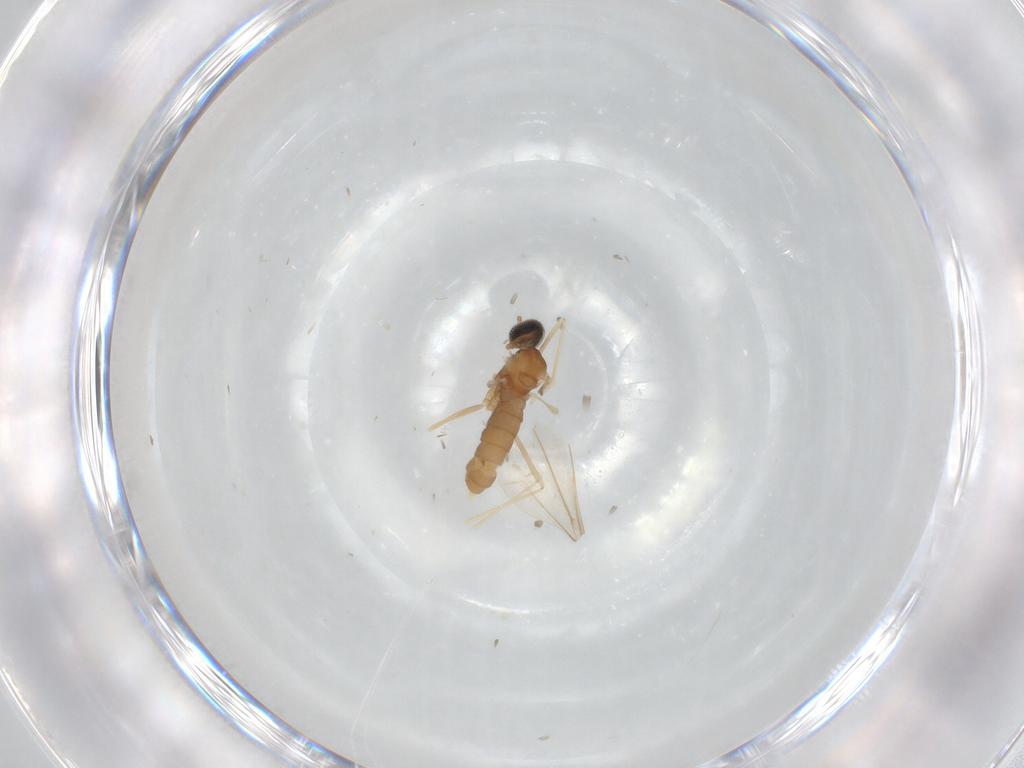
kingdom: Animalia
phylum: Arthropoda
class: Insecta
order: Diptera
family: Cecidomyiidae
